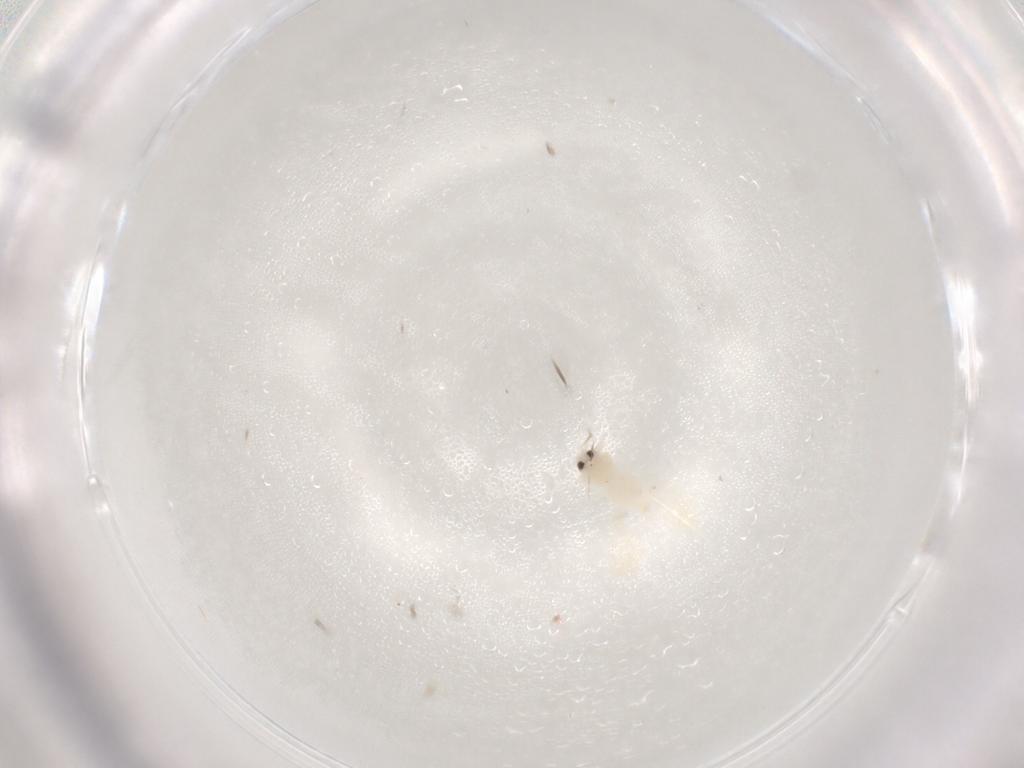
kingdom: Animalia
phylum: Arthropoda
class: Insecta
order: Hemiptera
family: Aleyrodidae
